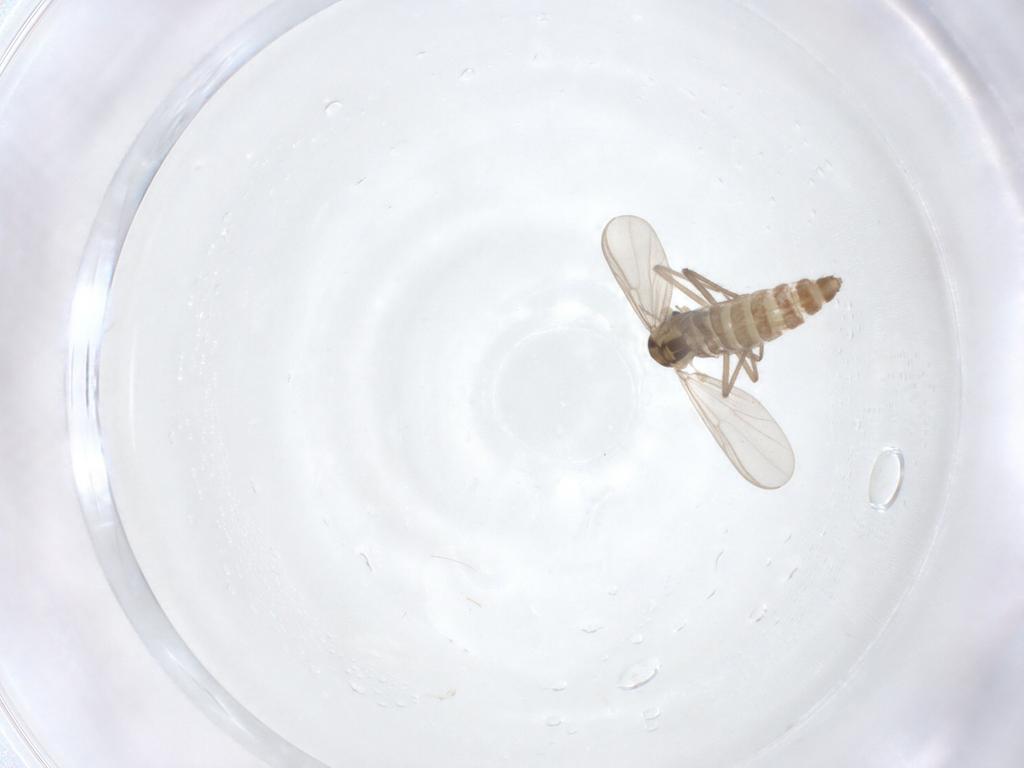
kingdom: Animalia
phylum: Arthropoda
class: Insecta
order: Diptera
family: Chironomidae
